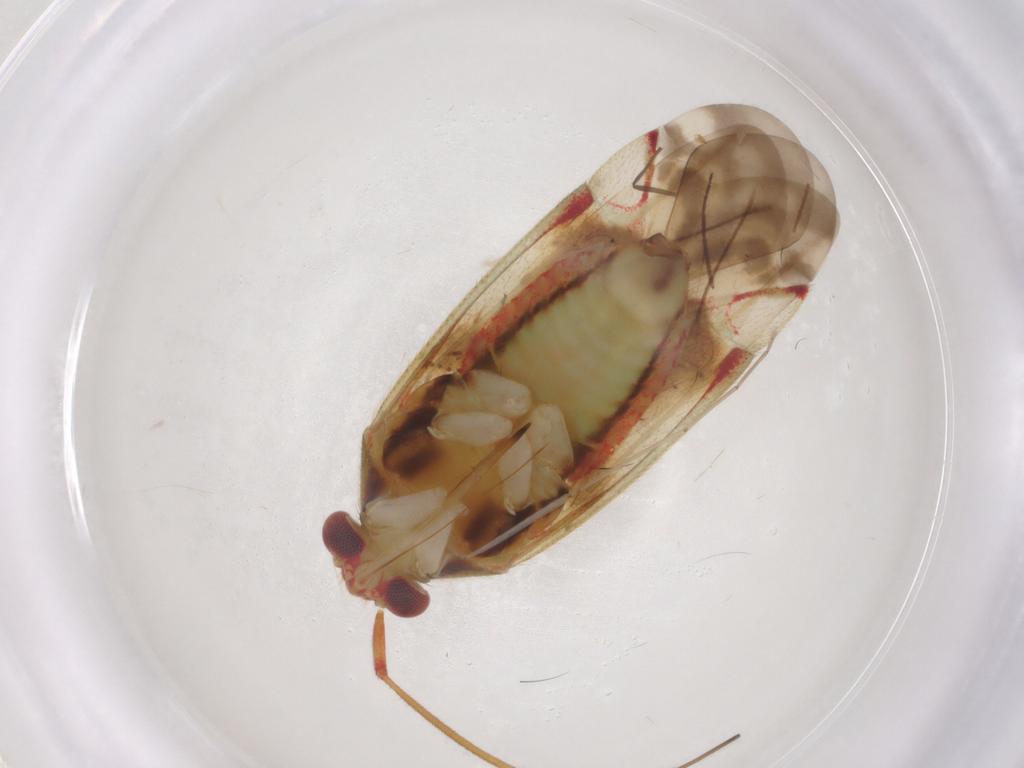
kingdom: Animalia
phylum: Arthropoda
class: Insecta
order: Hemiptera
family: Miridae
